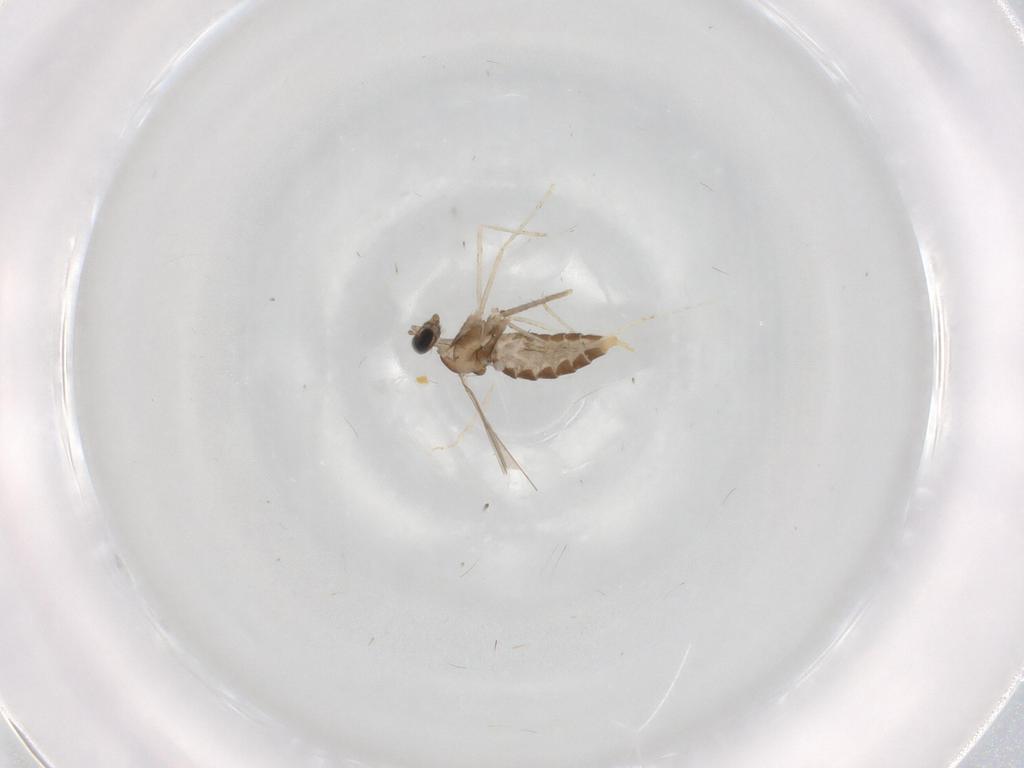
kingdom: Animalia
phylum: Arthropoda
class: Insecta
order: Diptera
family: Cecidomyiidae
